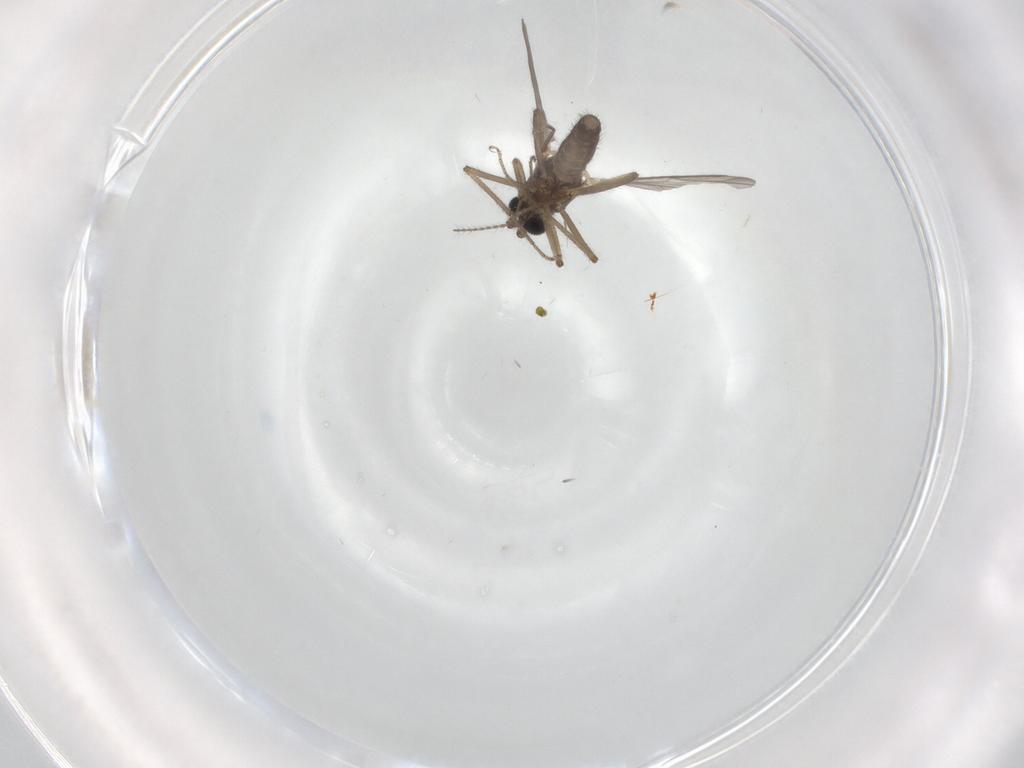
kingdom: Animalia
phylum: Arthropoda
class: Insecta
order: Diptera
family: Ceratopogonidae
